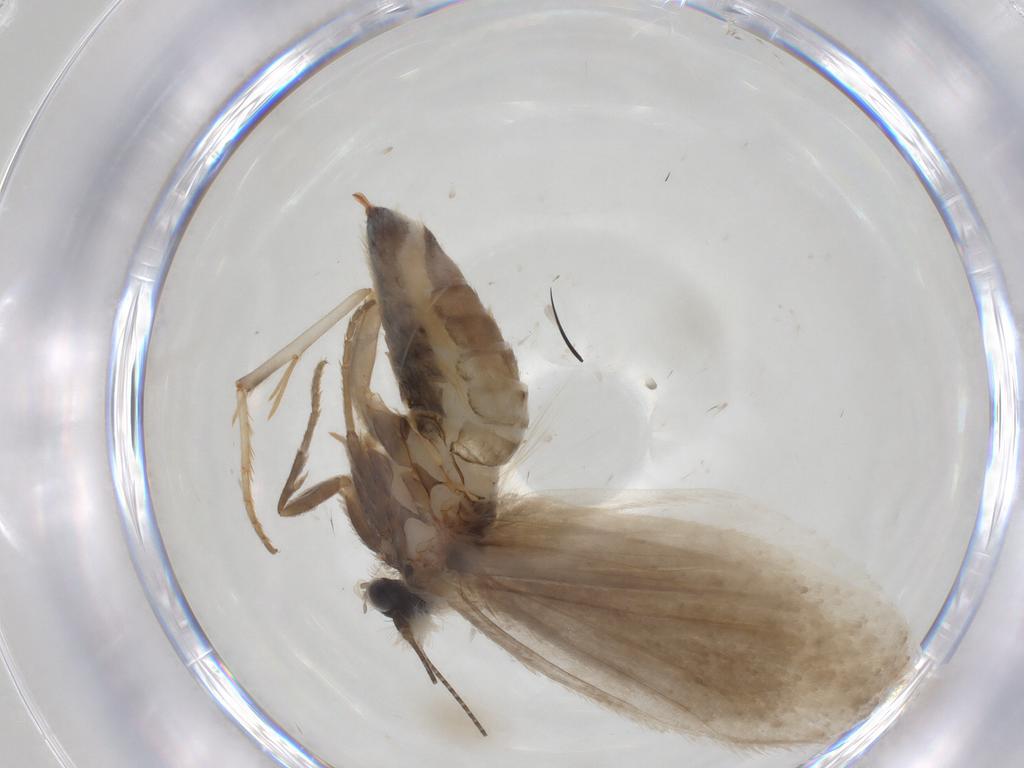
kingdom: Animalia
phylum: Arthropoda
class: Insecta
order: Lepidoptera
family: Tridentaformidae
